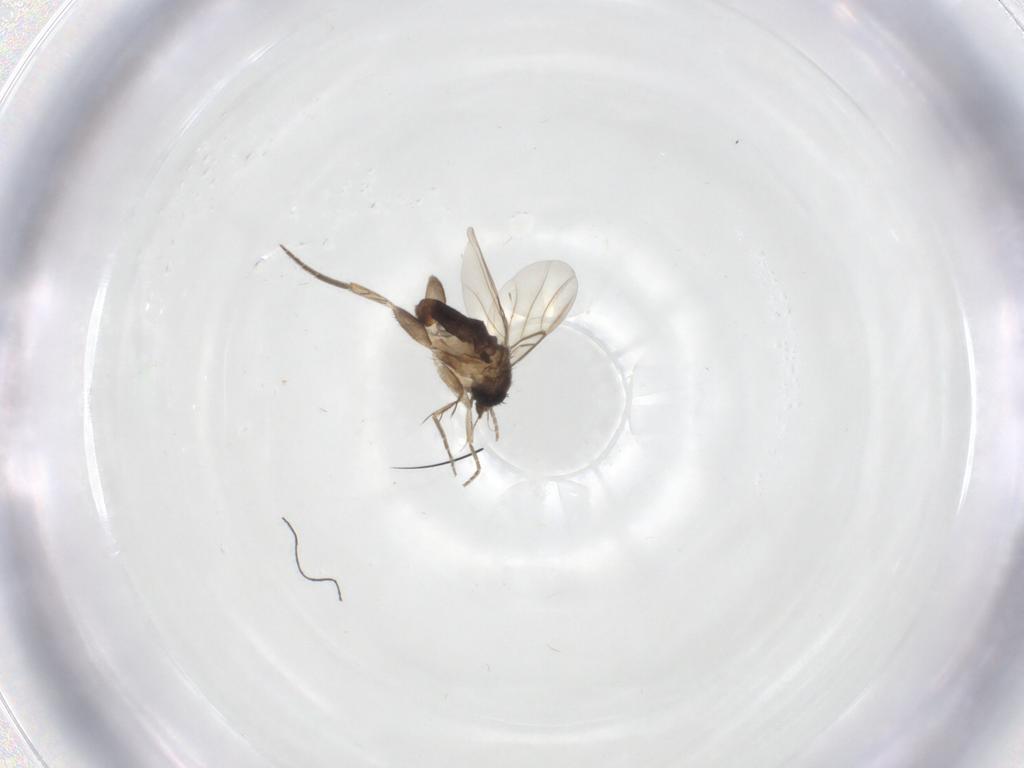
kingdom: Animalia
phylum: Arthropoda
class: Insecta
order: Diptera
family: Phoridae
